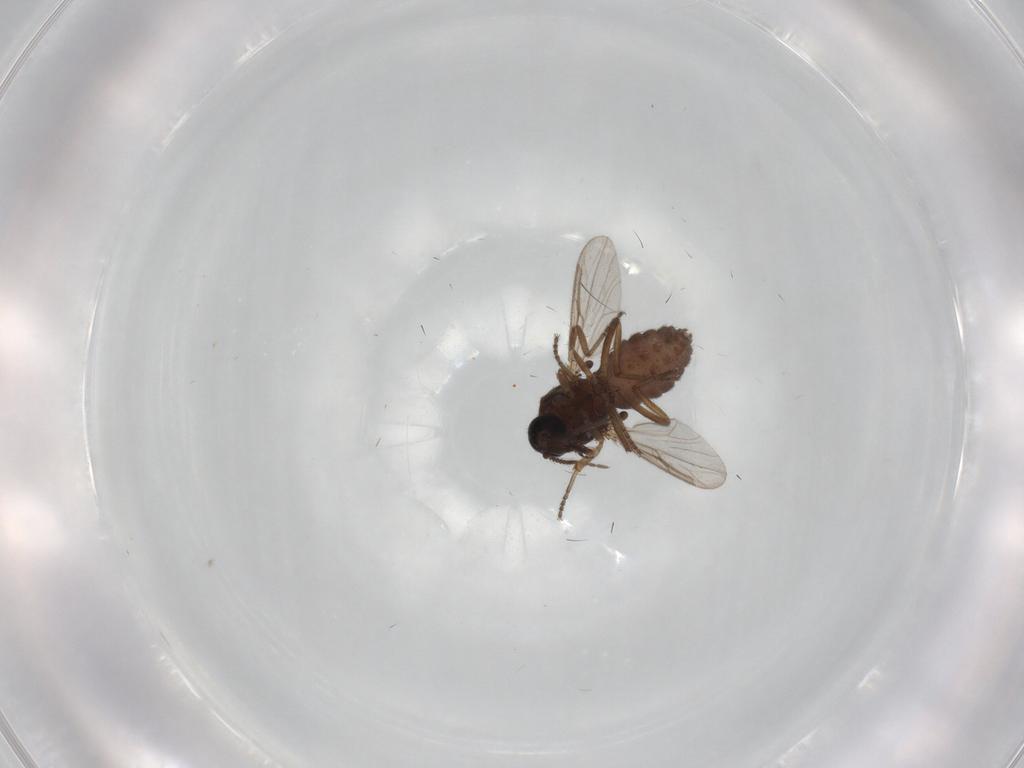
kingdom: Animalia
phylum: Arthropoda
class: Insecta
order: Diptera
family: Ceratopogonidae
